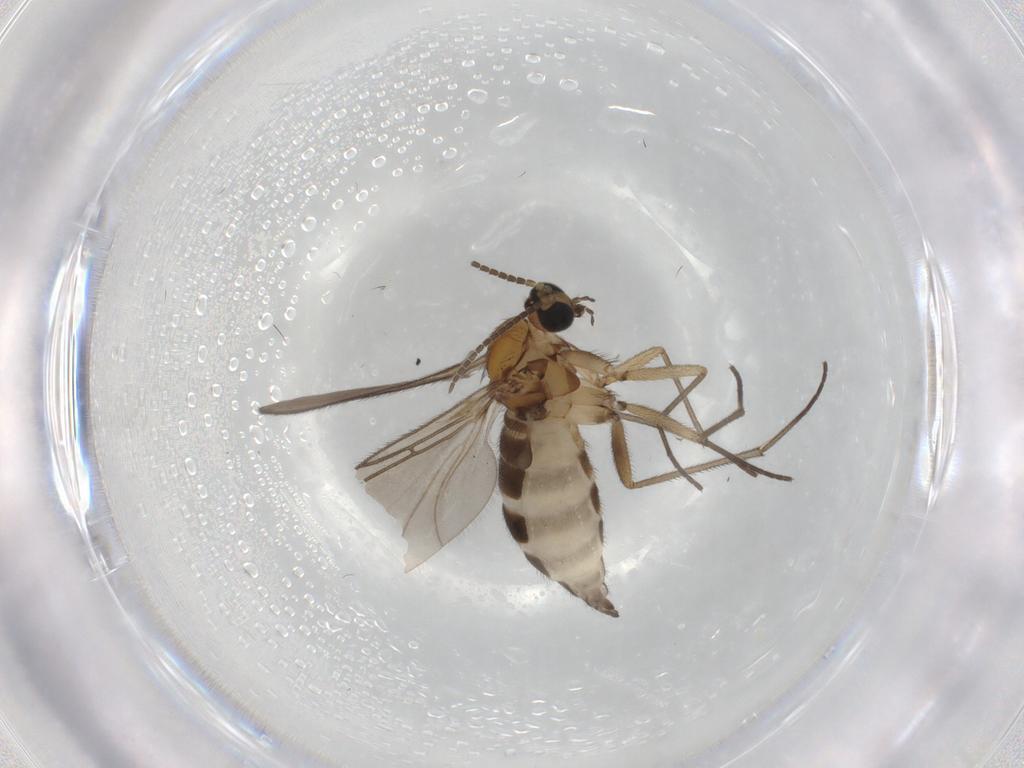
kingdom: Animalia
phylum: Arthropoda
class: Insecta
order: Diptera
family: Sciaridae
